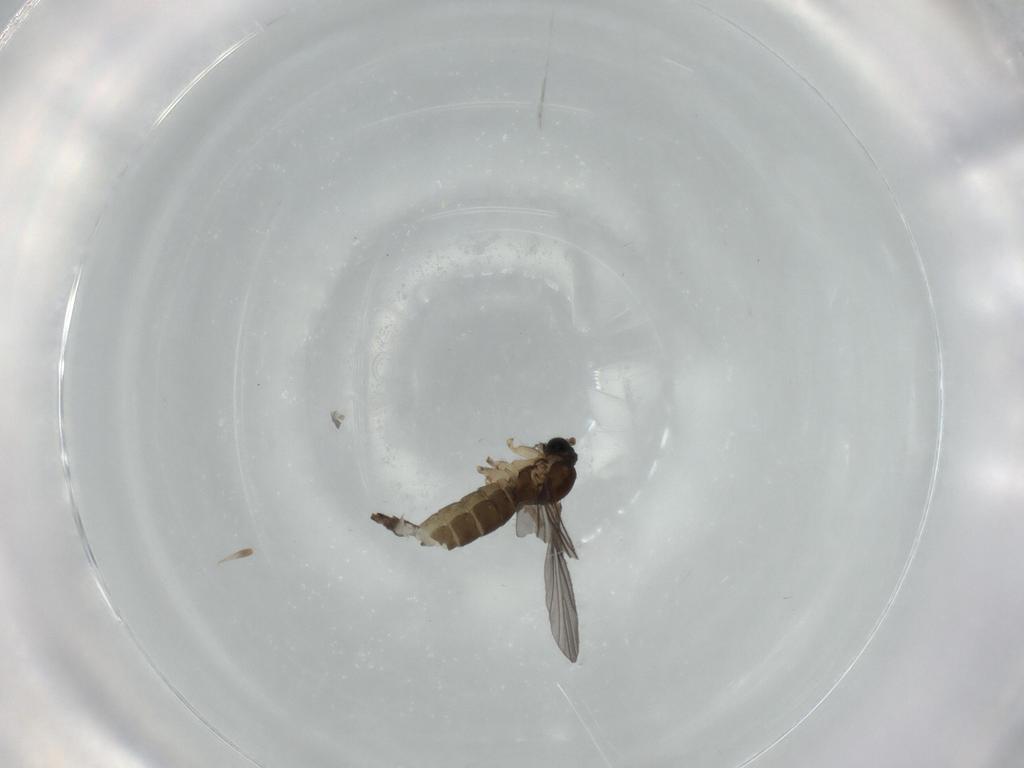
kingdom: Animalia
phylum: Arthropoda
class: Insecta
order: Diptera
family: Sciaridae
